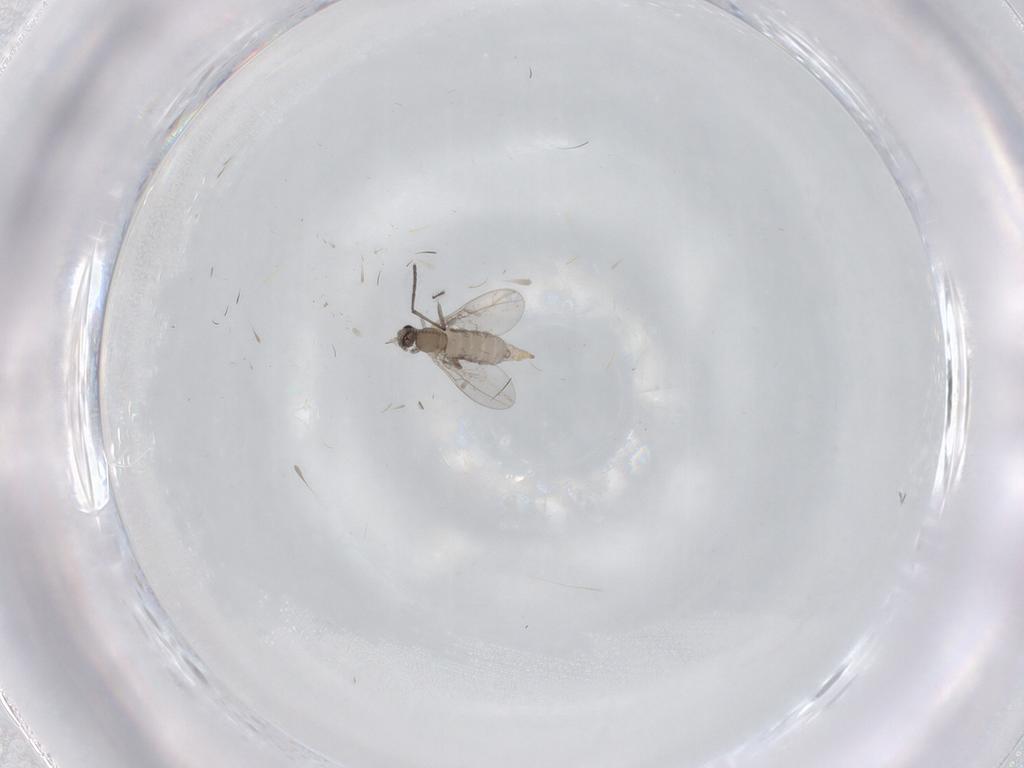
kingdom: Animalia
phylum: Arthropoda
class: Insecta
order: Diptera
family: Cecidomyiidae
